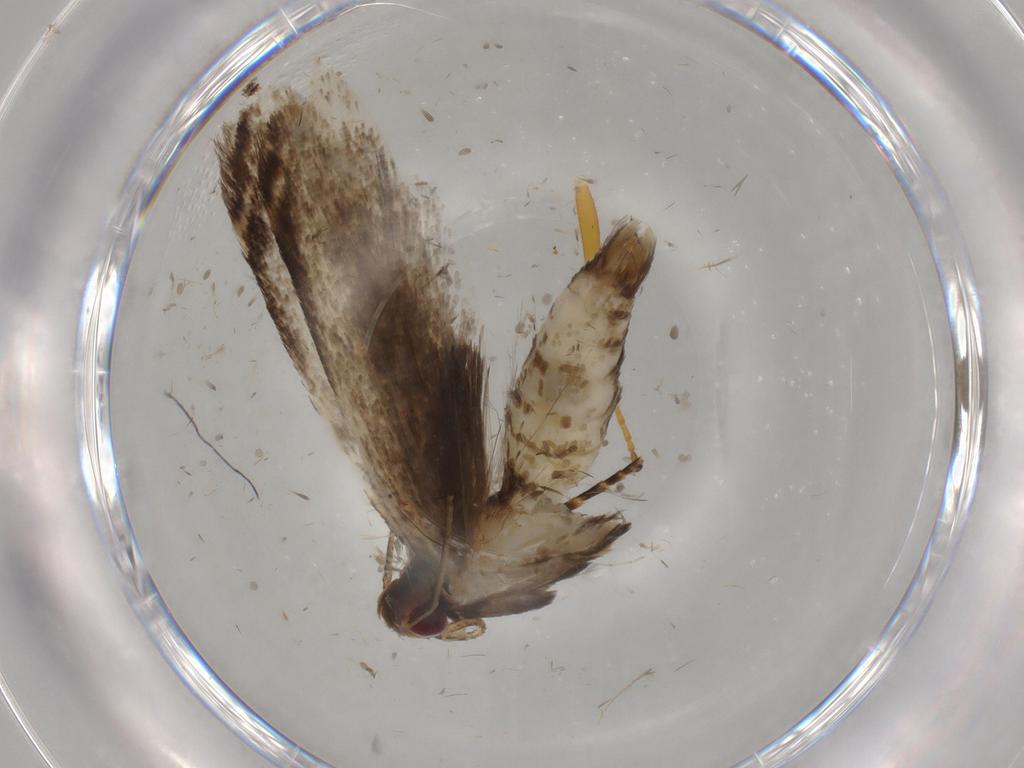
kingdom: Animalia
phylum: Arthropoda
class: Insecta
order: Lepidoptera
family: Gelechiidae
